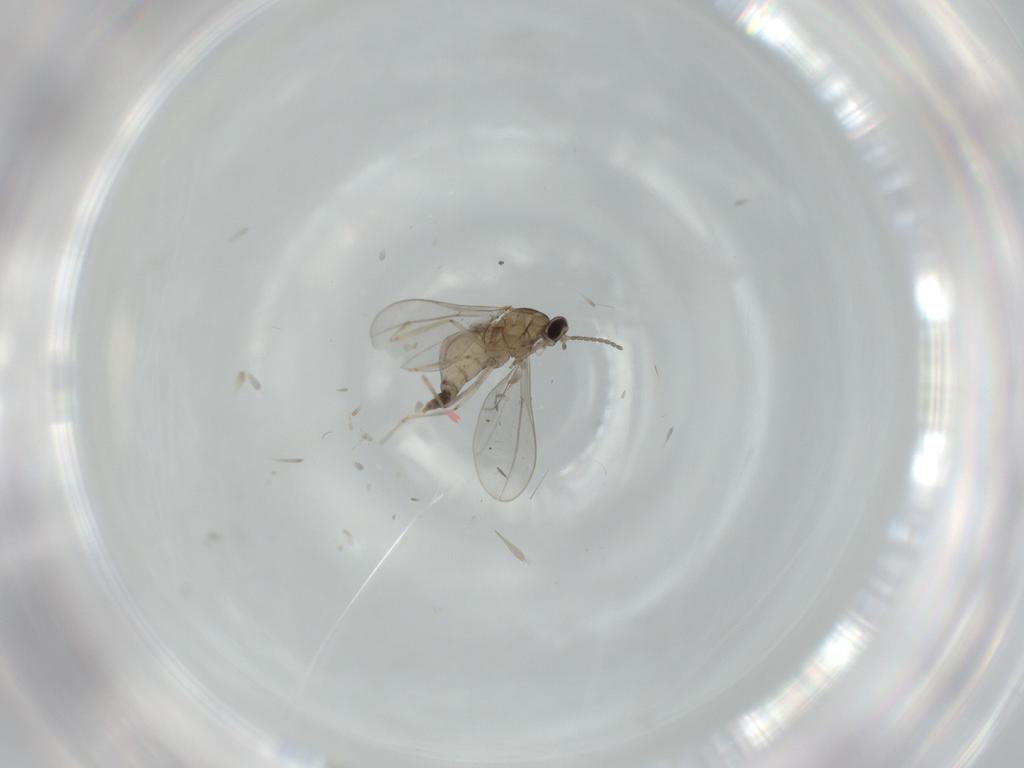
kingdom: Animalia
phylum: Arthropoda
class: Insecta
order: Diptera
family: Cecidomyiidae
